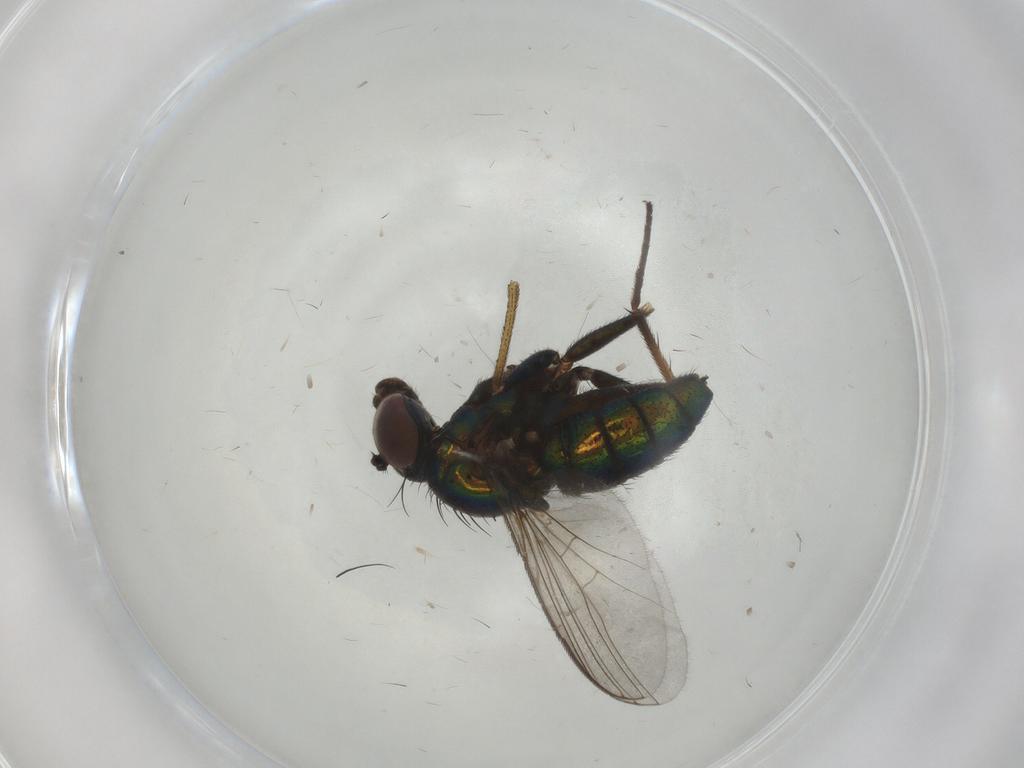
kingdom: Animalia
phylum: Arthropoda
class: Insecta
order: Diptera
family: Dolichopodidae
